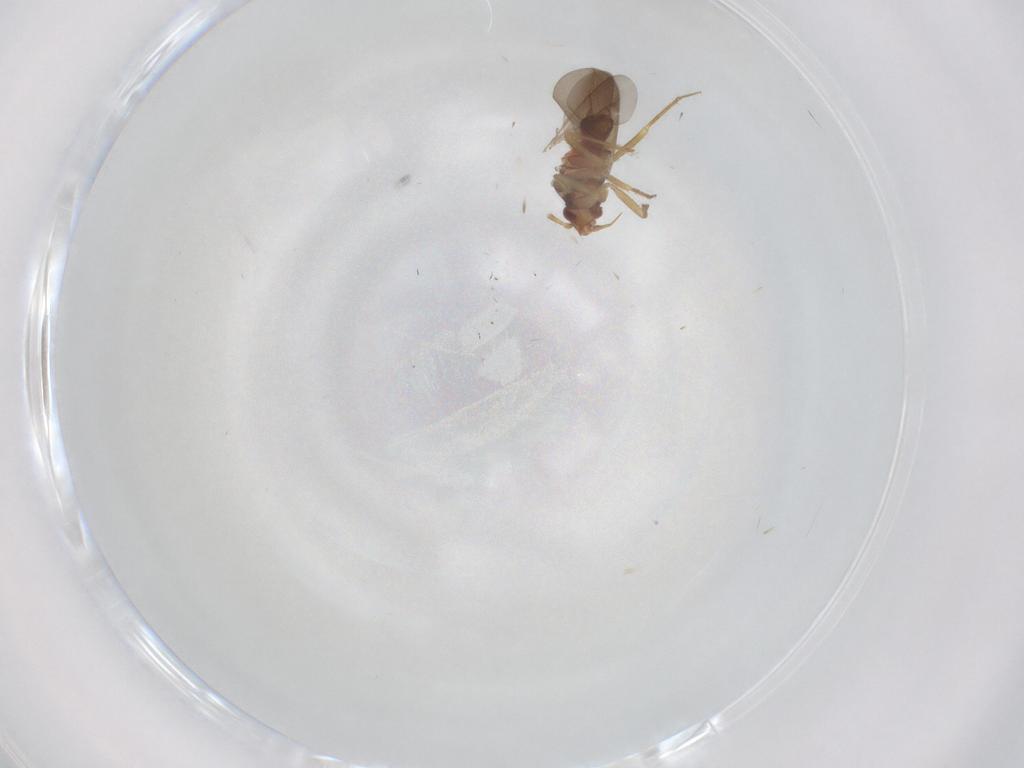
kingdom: Animalia
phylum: Arthropoda
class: Insecta
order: Hemiptera
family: Ceratocombidae
